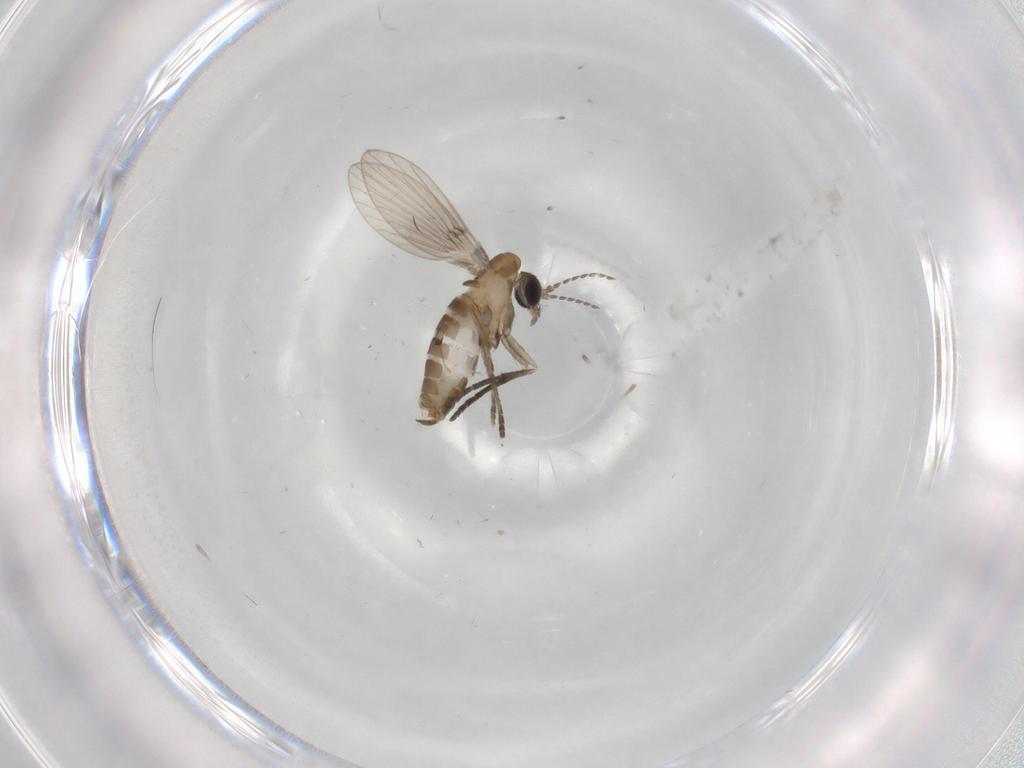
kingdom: Animalia
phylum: Arthropoda
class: Insecta
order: Diptera
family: Psychodidae
